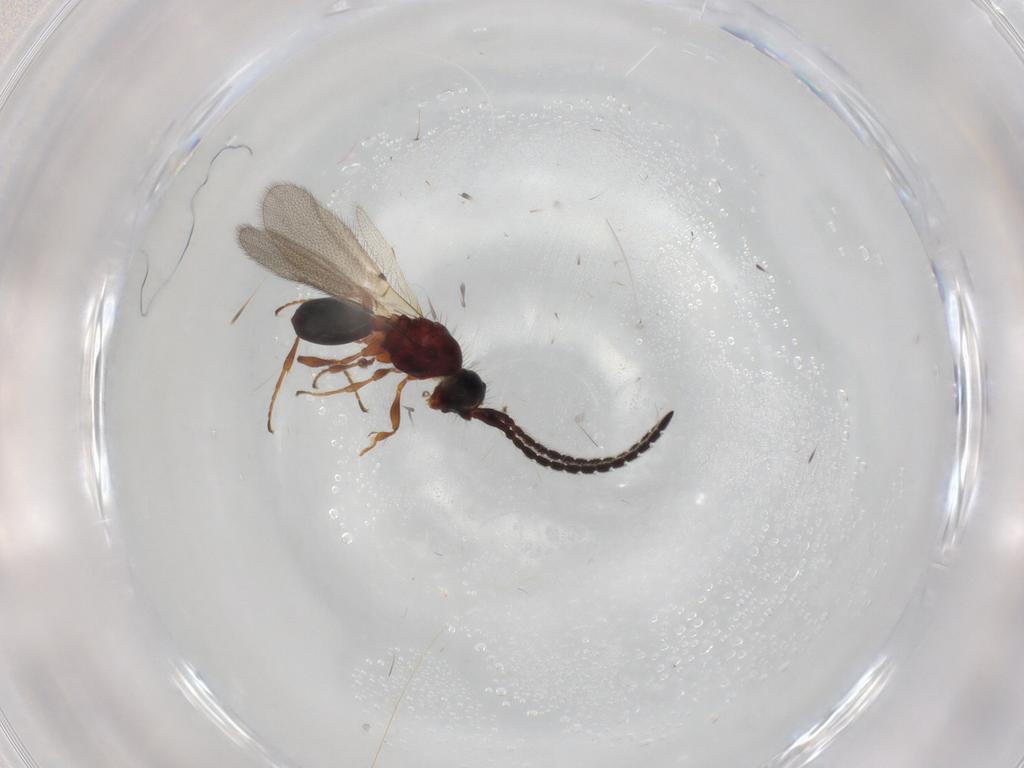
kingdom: Animalia
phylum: Arthropoda
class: Insecta
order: Hymenoptera
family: Diapriidae
